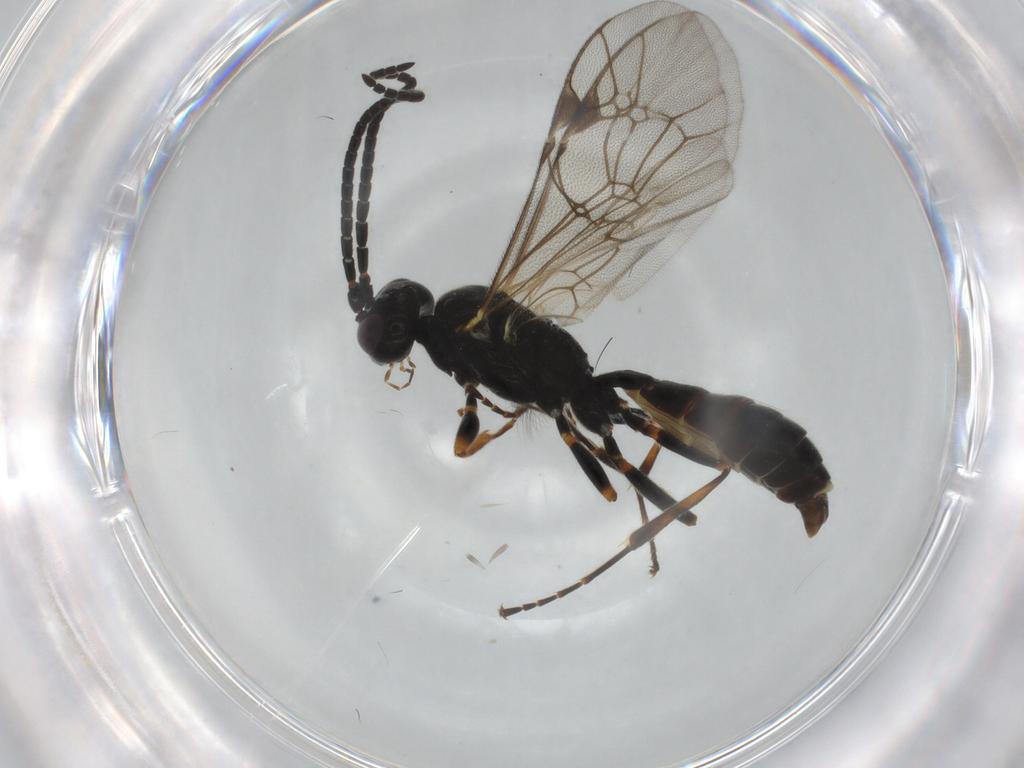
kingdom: Animalia
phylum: Arthropoda
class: Insecta
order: Hymenoptera
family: Ichneumonidae
